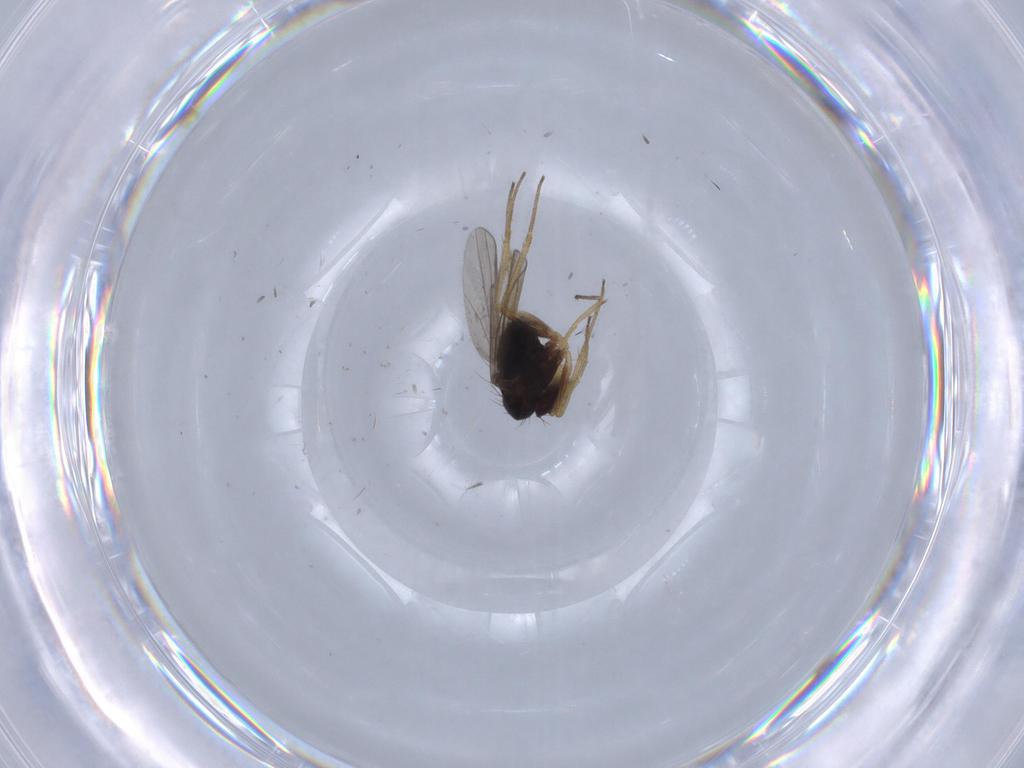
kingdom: Animalia
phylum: Arthropoda
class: Insecta
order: Diptera
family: Dolichopodidae
